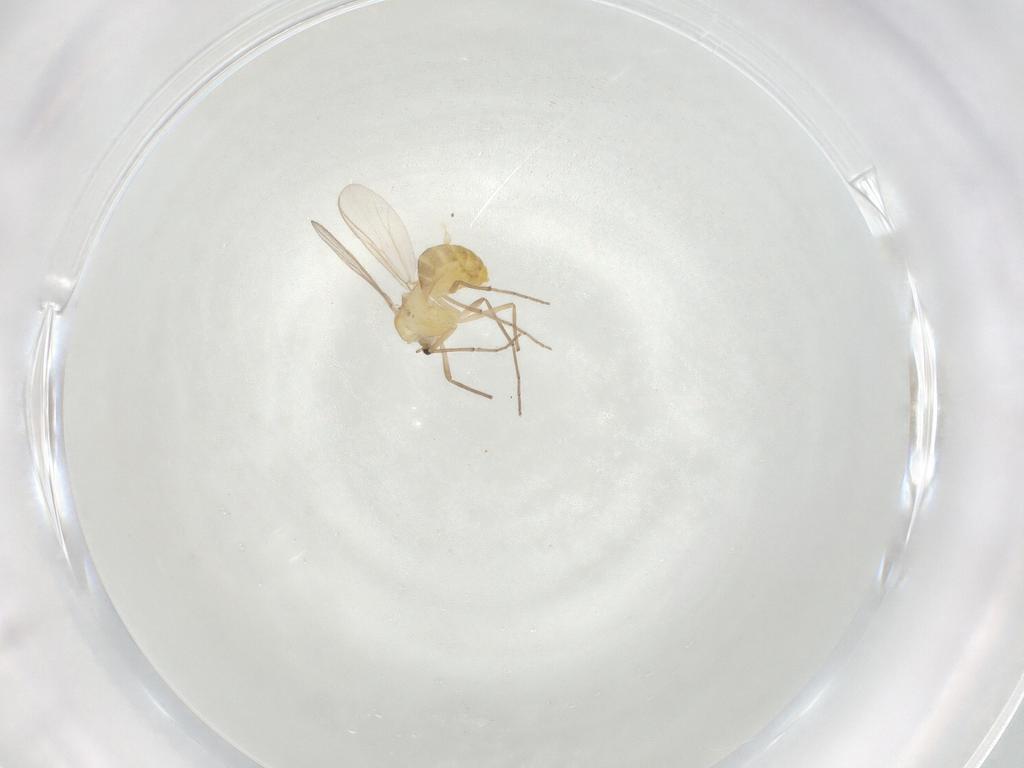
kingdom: Animalia
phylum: Arthropoda
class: Insecta
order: Diptera
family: Chironomidae
